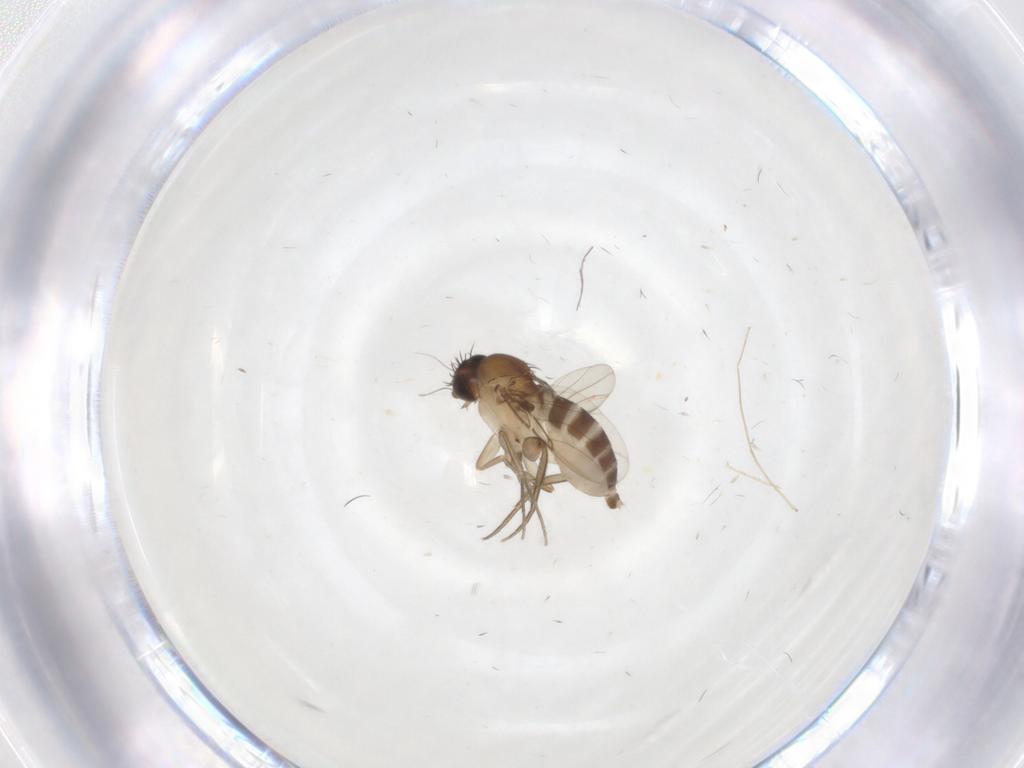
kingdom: Animalia
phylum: Arthropoda
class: Insecta
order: Diptera
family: Phoridae
